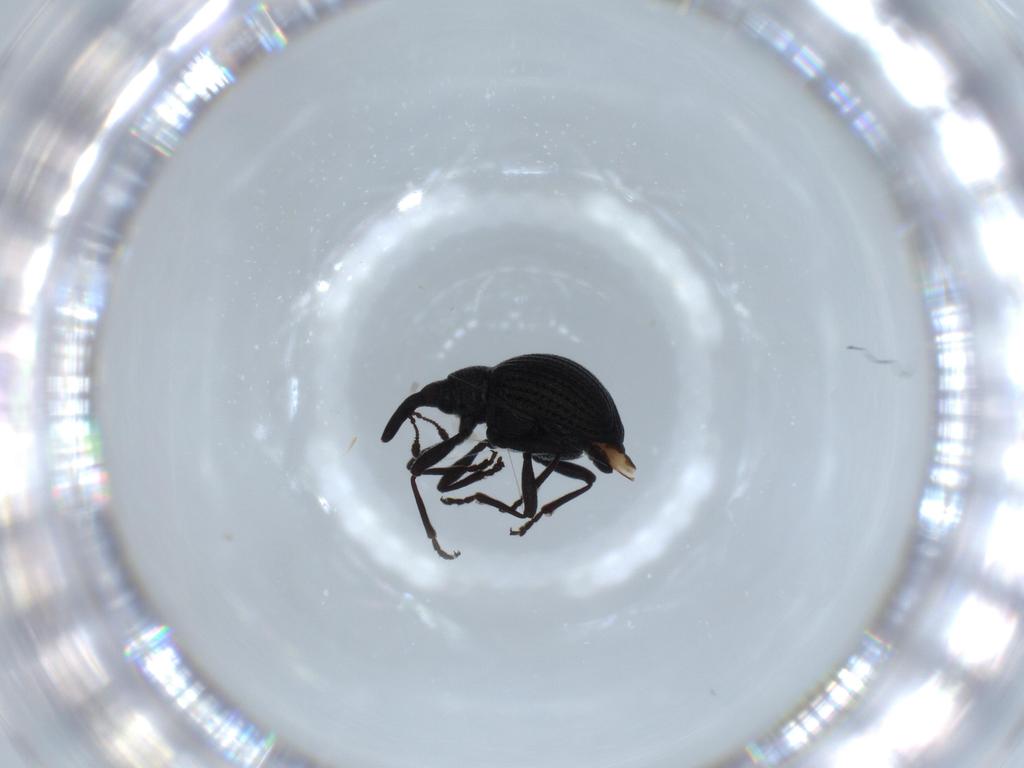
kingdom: Animalia
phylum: Arthropoda
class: Insecta
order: Coleoptera
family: Brentidae
